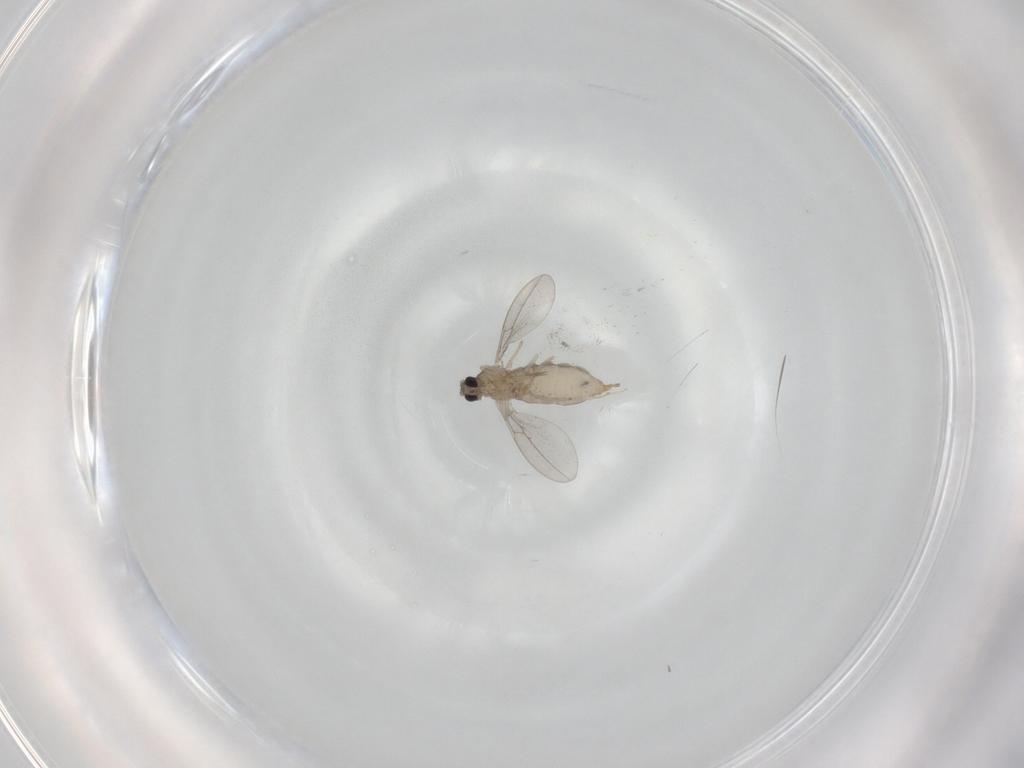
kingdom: Animalia
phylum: Arthropoda
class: Insecta
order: Diptera
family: Cecidomyiidae
